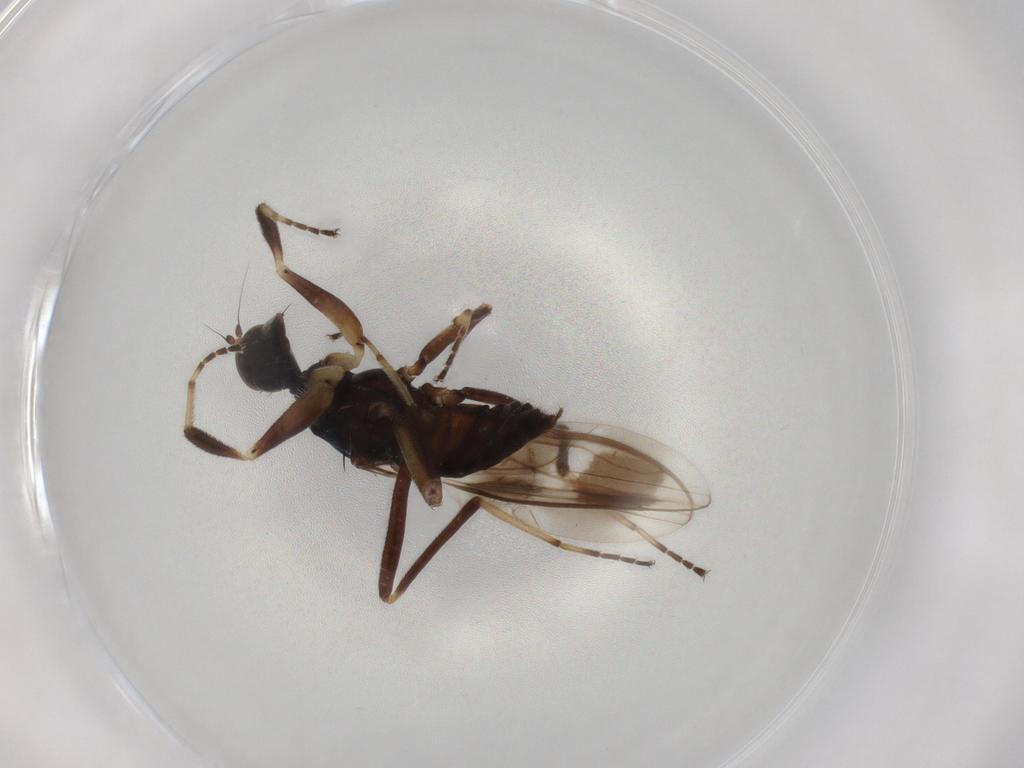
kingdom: Animalia
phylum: Arthropoda
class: Insecta
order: Diptera
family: Hybotidae
